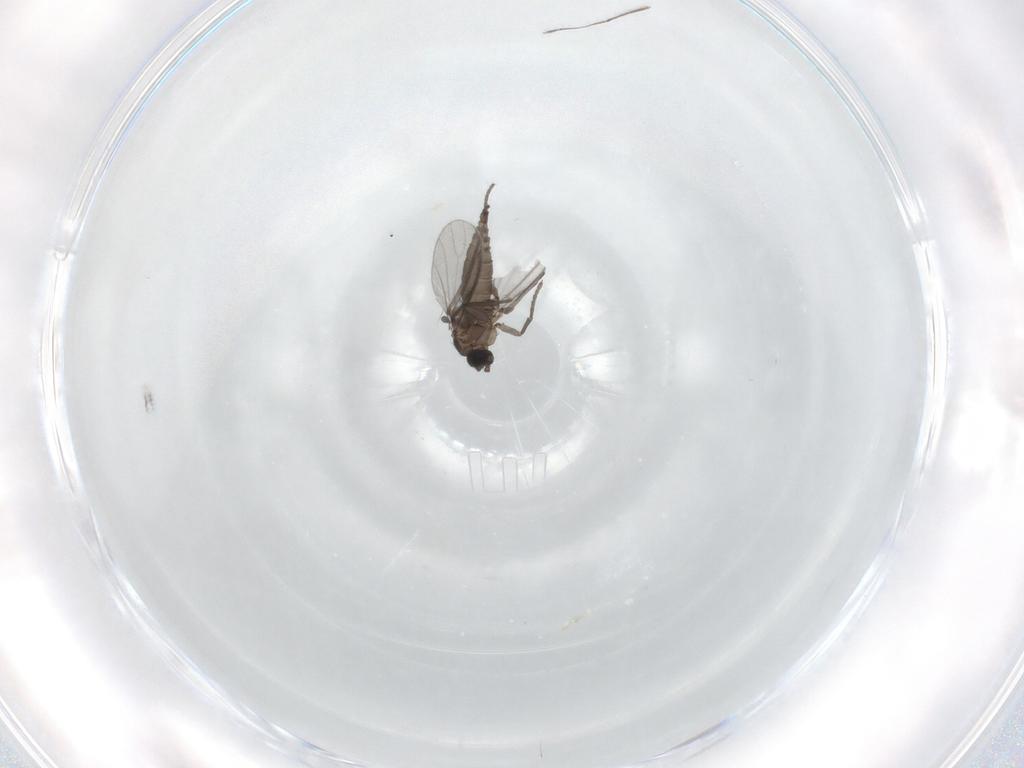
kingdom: Animalia
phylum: Arthropoda
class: Insecta
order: Diptera
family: Ceratopogonidae
